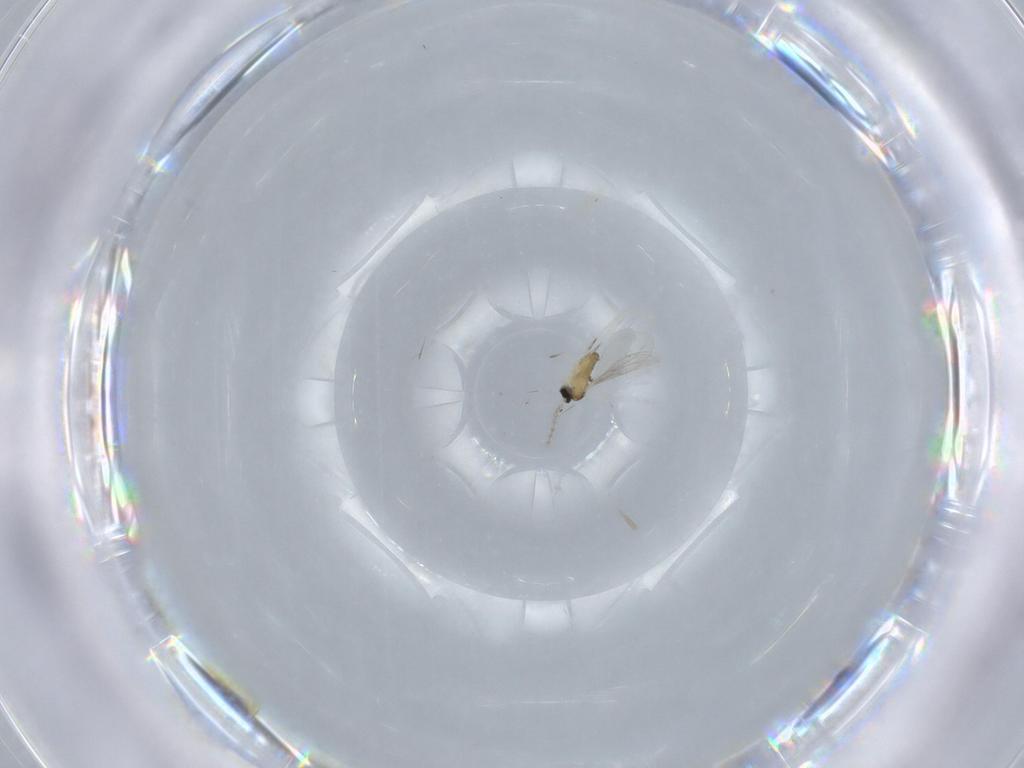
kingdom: Animalia
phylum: Arthropoda
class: Insecta
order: Diptera
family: Cecidomyiidae
